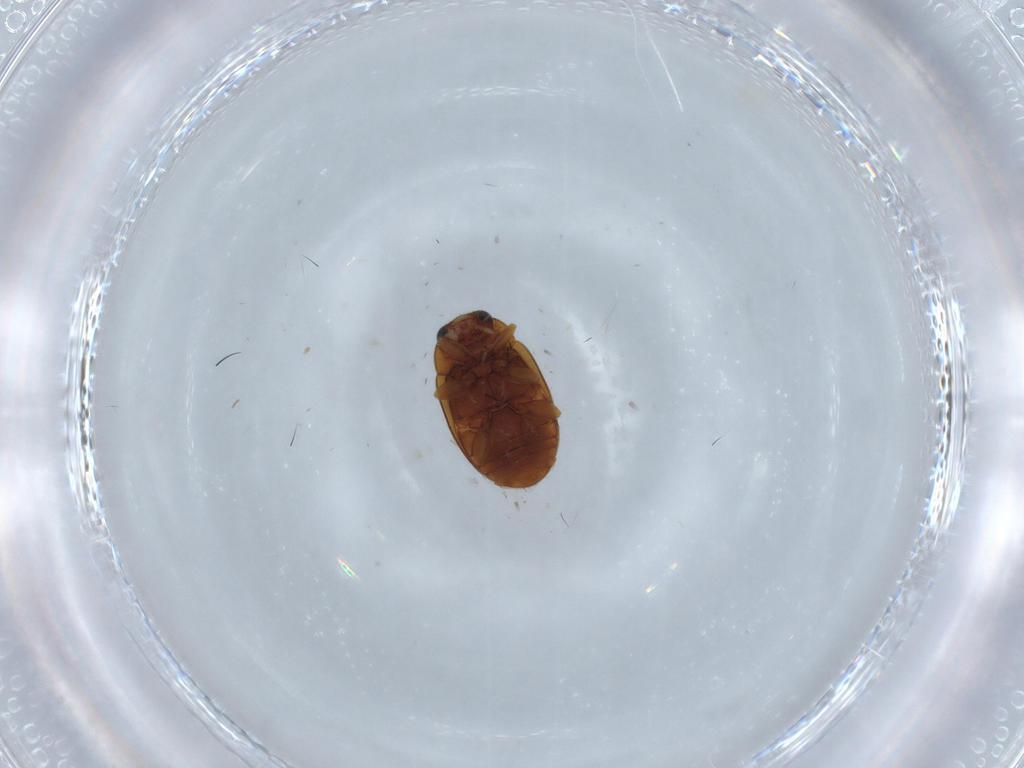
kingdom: Animalia
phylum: Arthropoda
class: Insecta
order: Coleoptera
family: Coccinellidae
